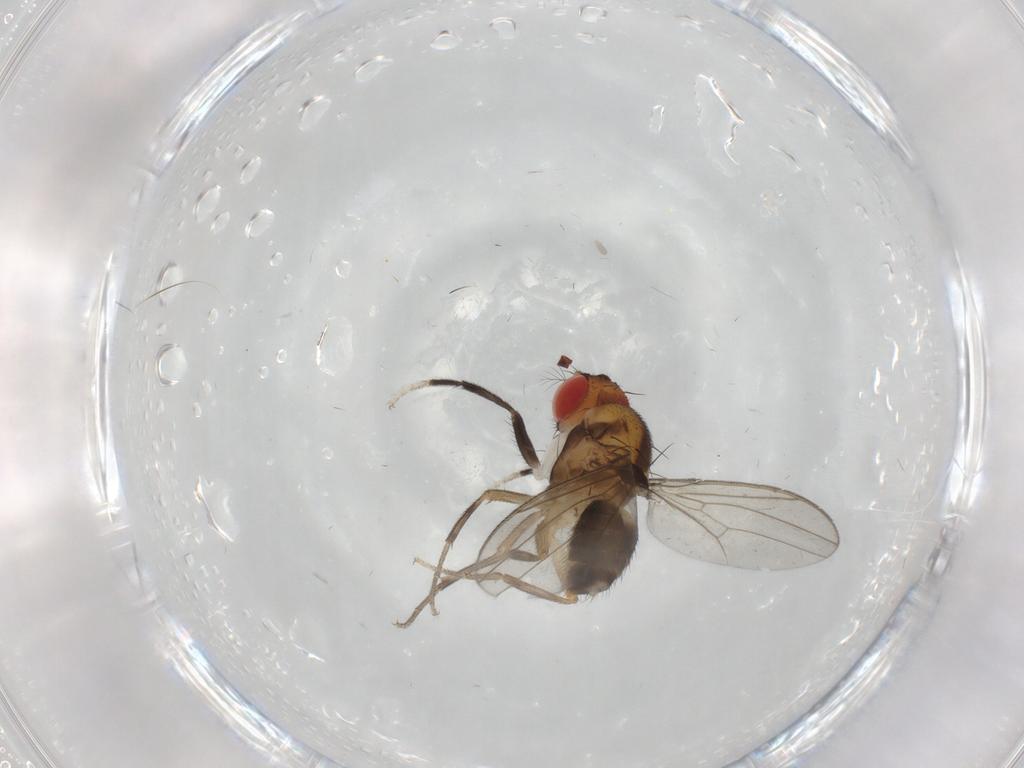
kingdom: Animalia
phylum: Arthropoda
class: Insecta
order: Diptera
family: Drosophilidae
